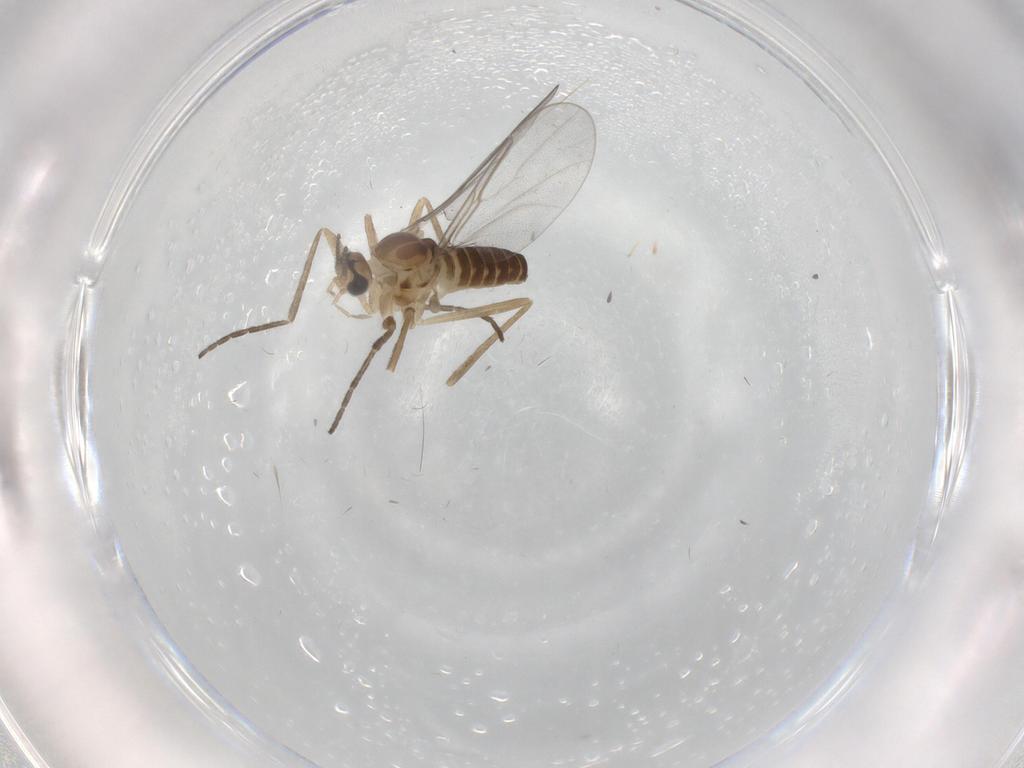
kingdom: Animalia
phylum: Arthropoda
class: Insecta
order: Diptera
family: Cecidomyiidae
